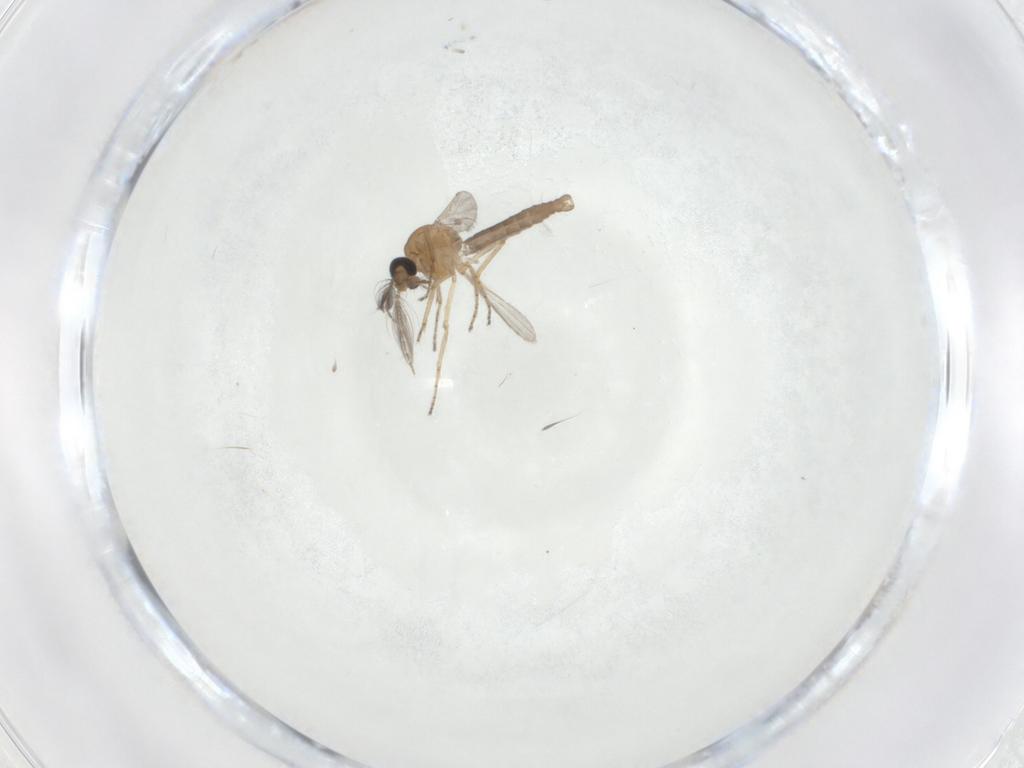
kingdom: Animalia
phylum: Arthropoda
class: Insecta
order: Diptera
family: Ceratopogonidae
